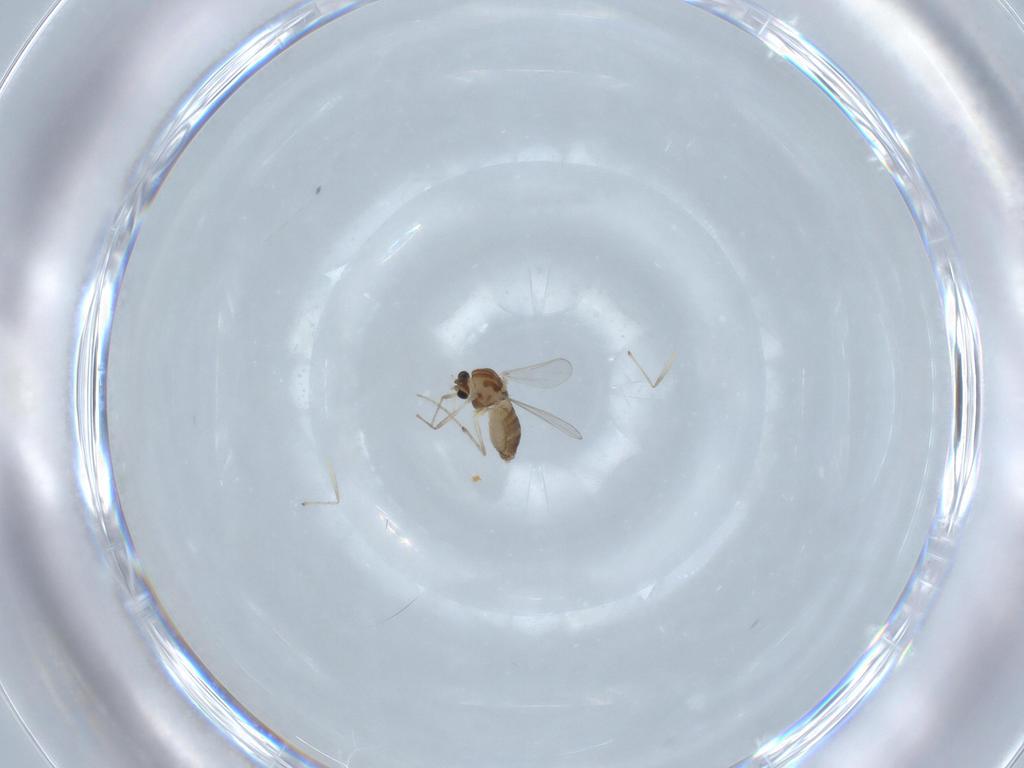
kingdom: Animalia
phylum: Arthropoda
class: Insecta
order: Diptera
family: Chironomidae
